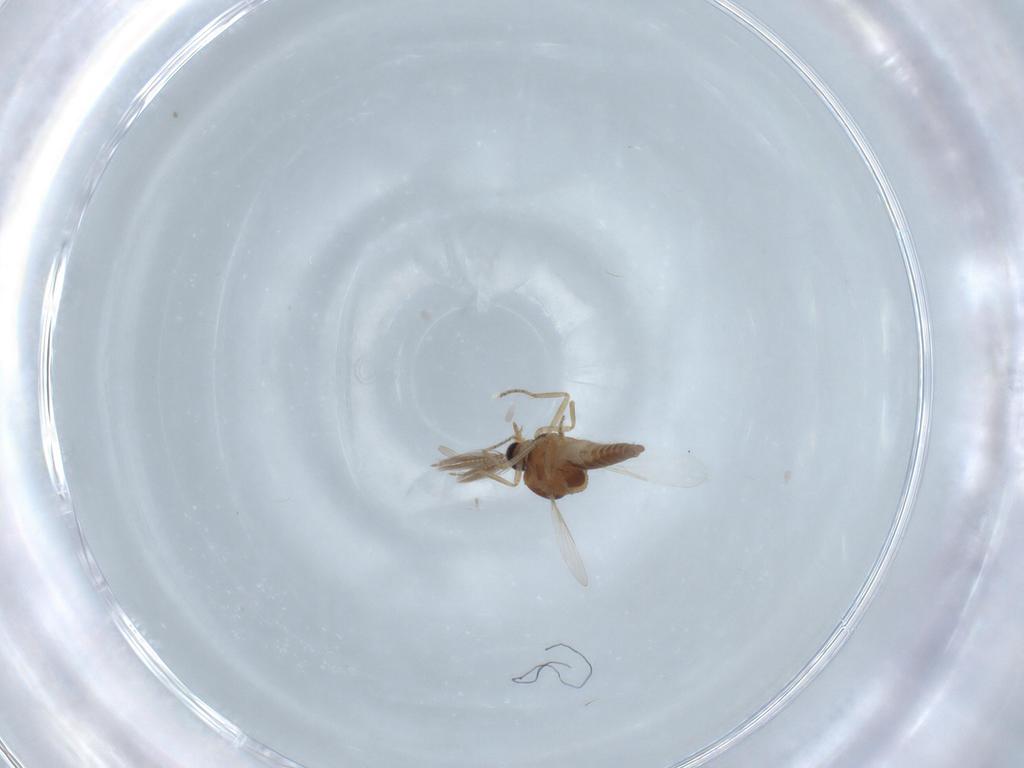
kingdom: Animalia
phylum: Arthropoda
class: Insecta
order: Diptera
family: Ceratopogonidae
